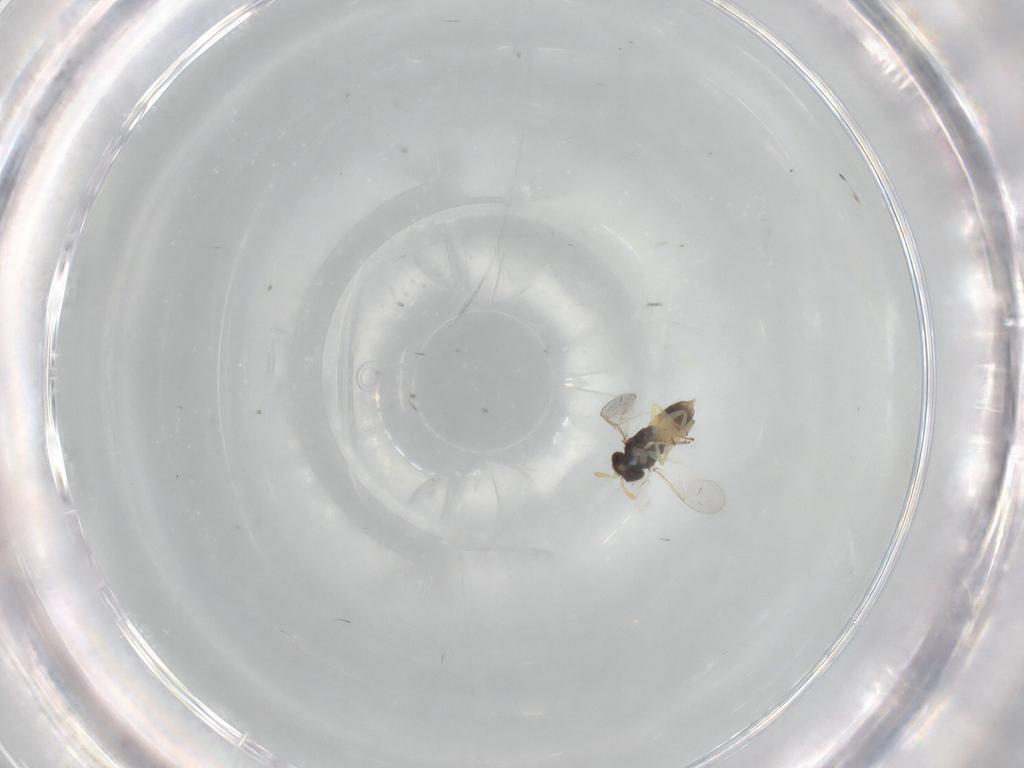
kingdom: Animalia
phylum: Arthropoda
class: Insecta
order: Hymenoptera
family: Aphelinidae
